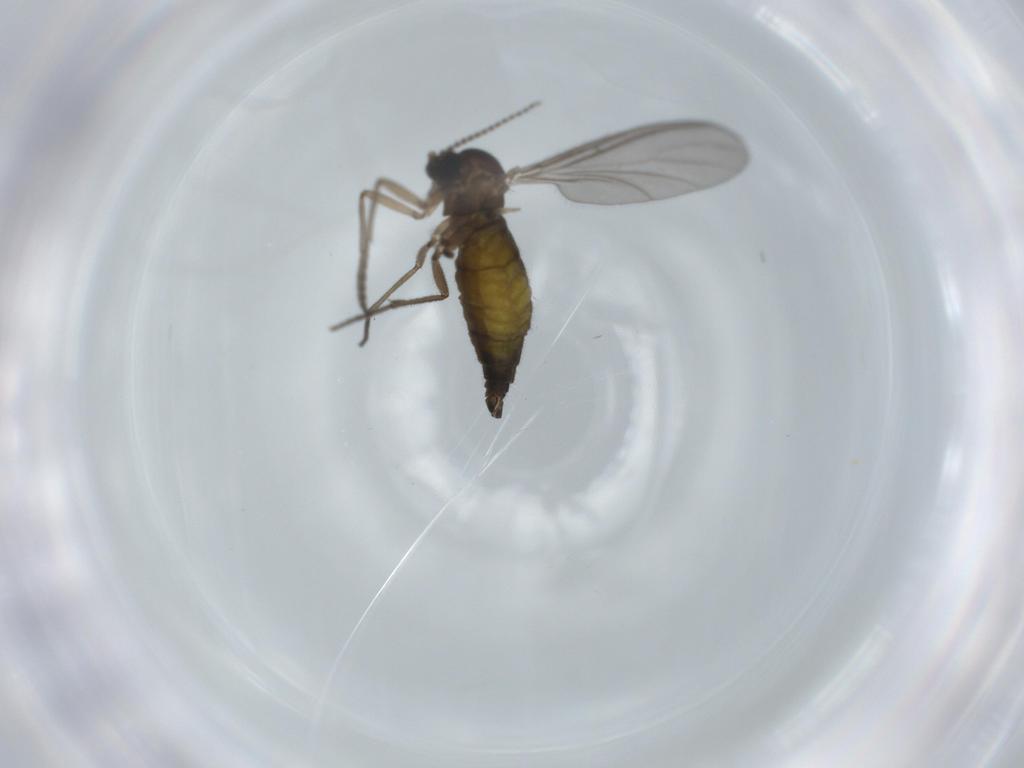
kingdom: Animalia
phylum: Arthropoda
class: Insecta
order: Diptera
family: Sciaridae
